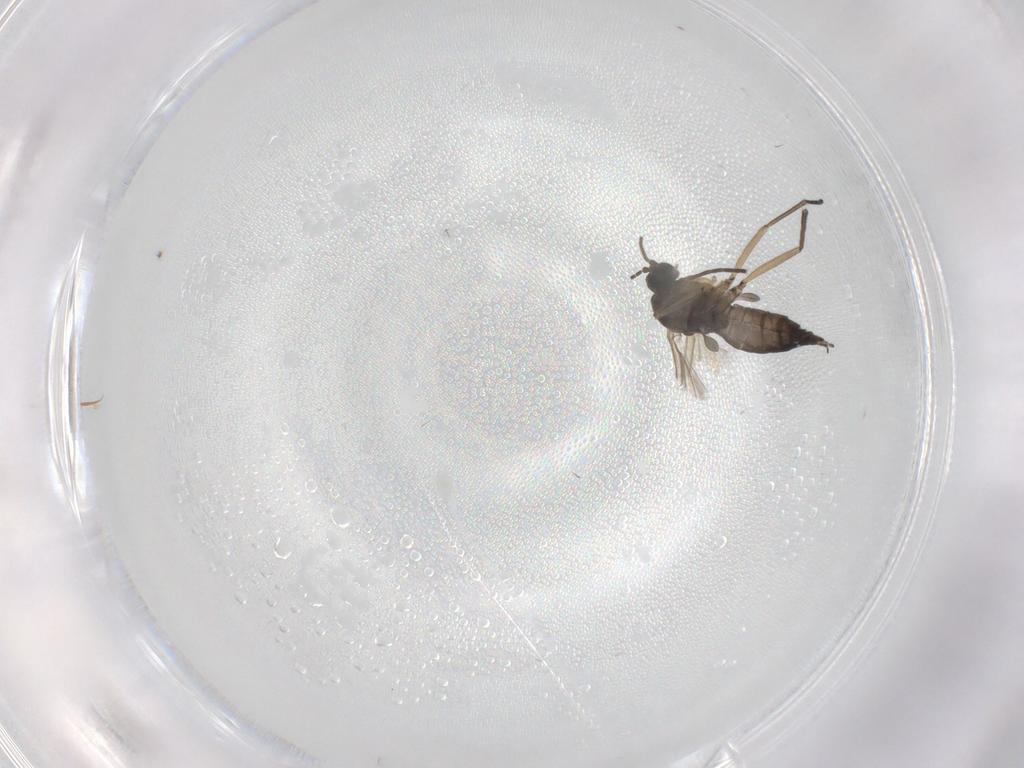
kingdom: Animalia
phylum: Arthropoda
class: Insecta
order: Diptera
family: Sciaridae
